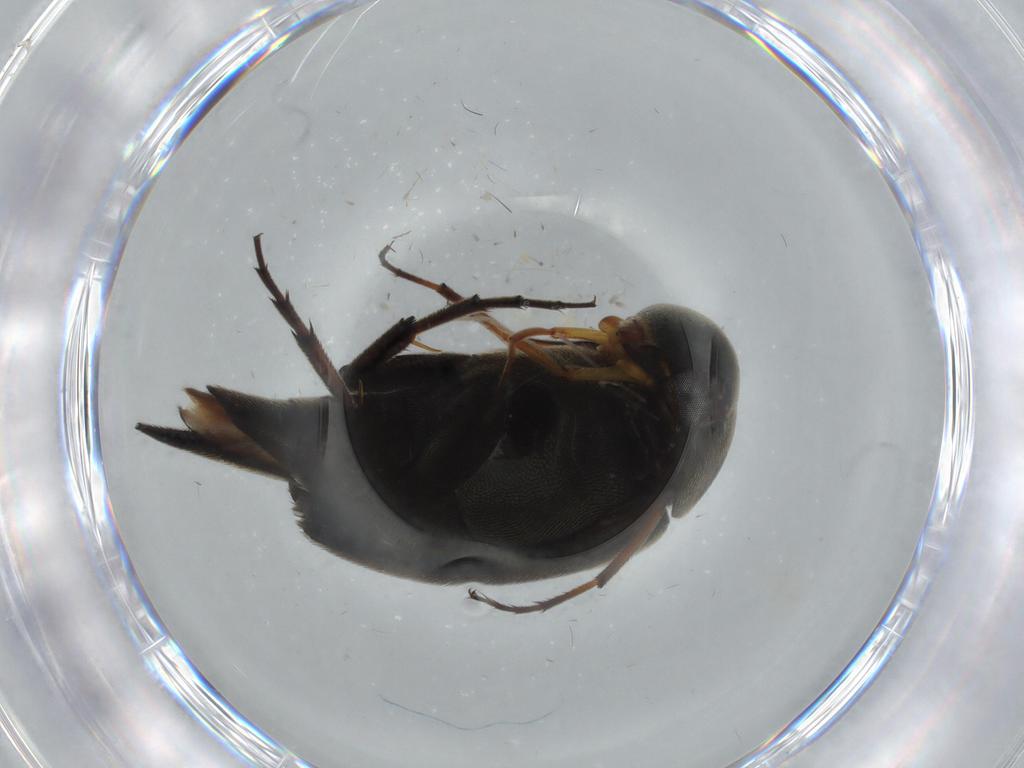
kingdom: Animalia
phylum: Arthropoda
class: Insecta
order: Coleoptera
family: Mordellidae
